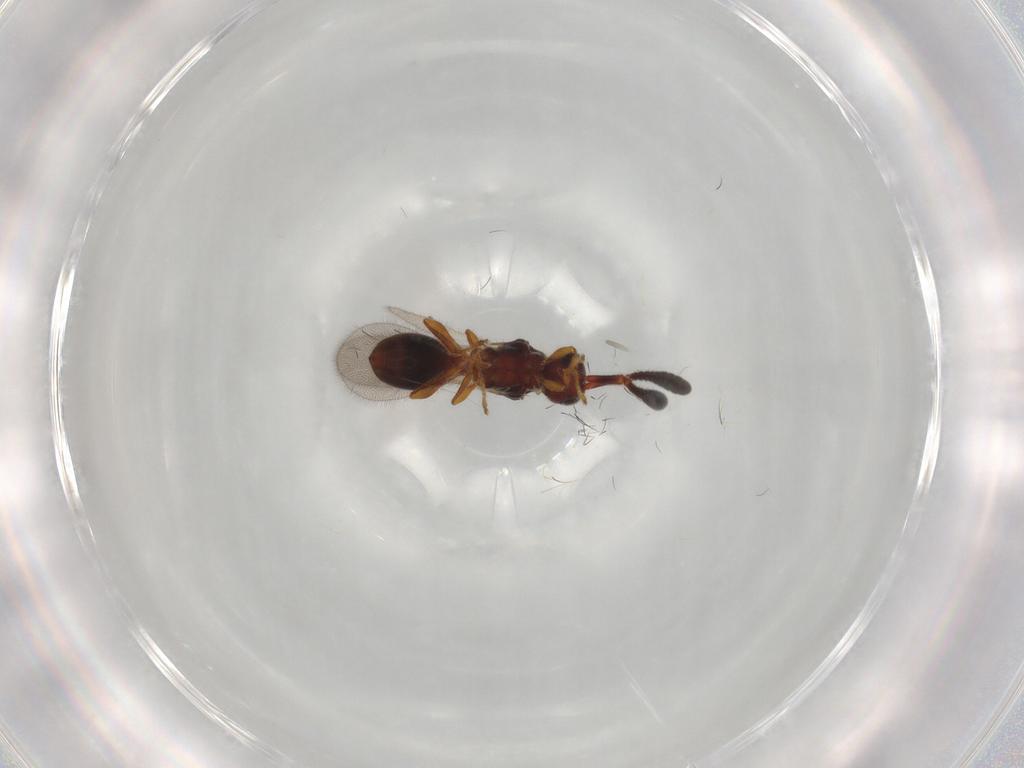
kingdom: Animalia
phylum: Arthropoda
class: Insecta
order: Hymenoptera
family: Diapriidae
